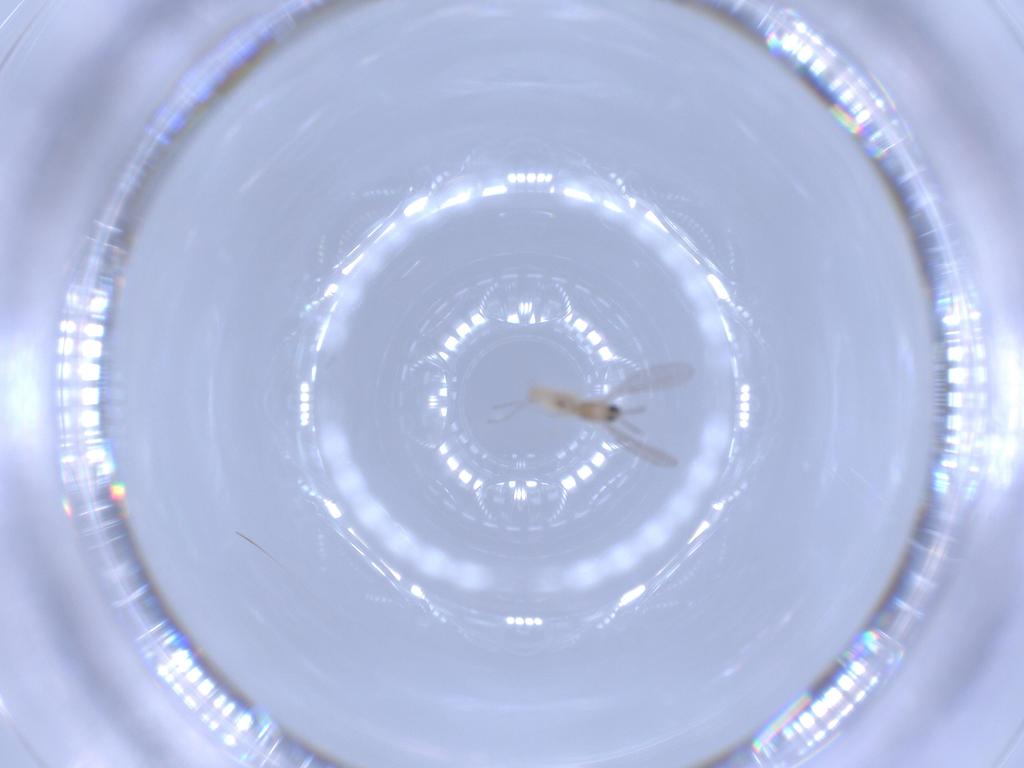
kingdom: Animalia
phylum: Arthropoda
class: Insecta
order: Diptera
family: Cecidomyiidae
